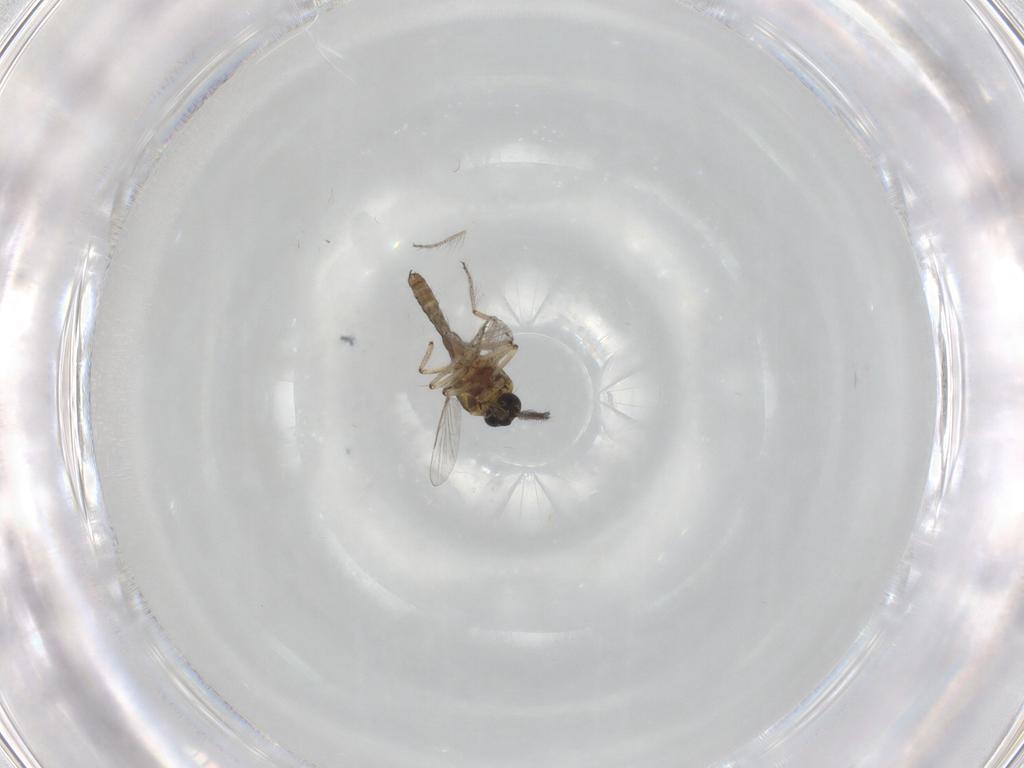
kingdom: Animalia
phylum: Arthropoda
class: Insecta
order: Diptera
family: Ceratopogonidae
